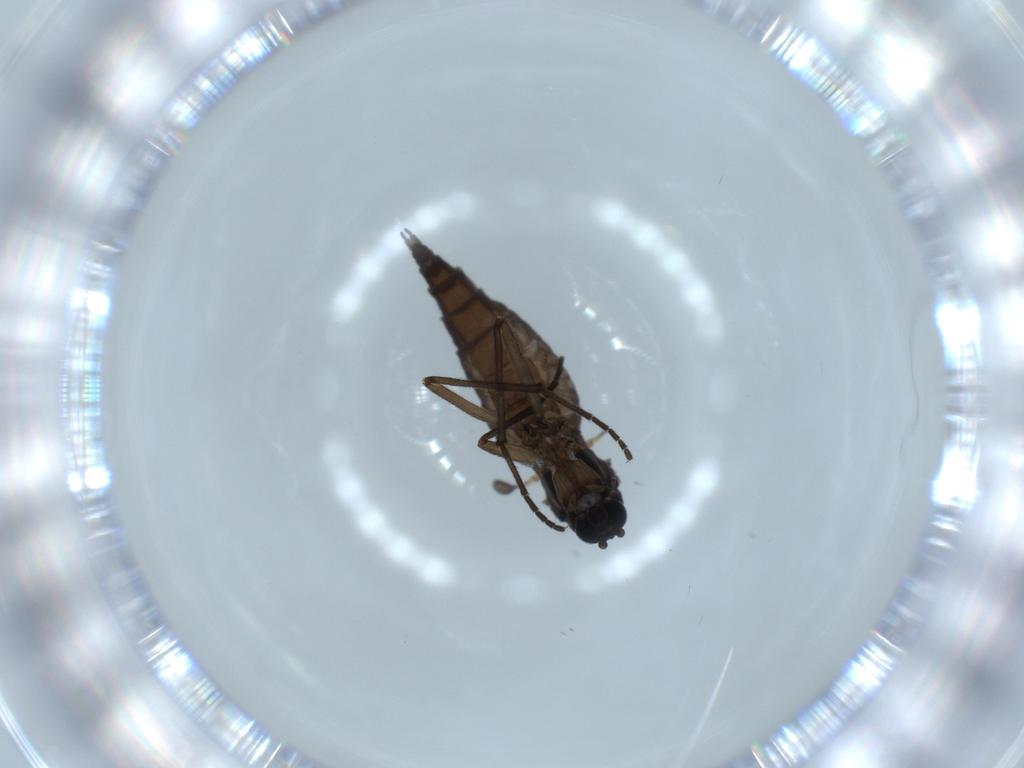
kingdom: Animalia
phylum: Arthropoda
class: Insecta
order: Diptera
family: Sciaridae
